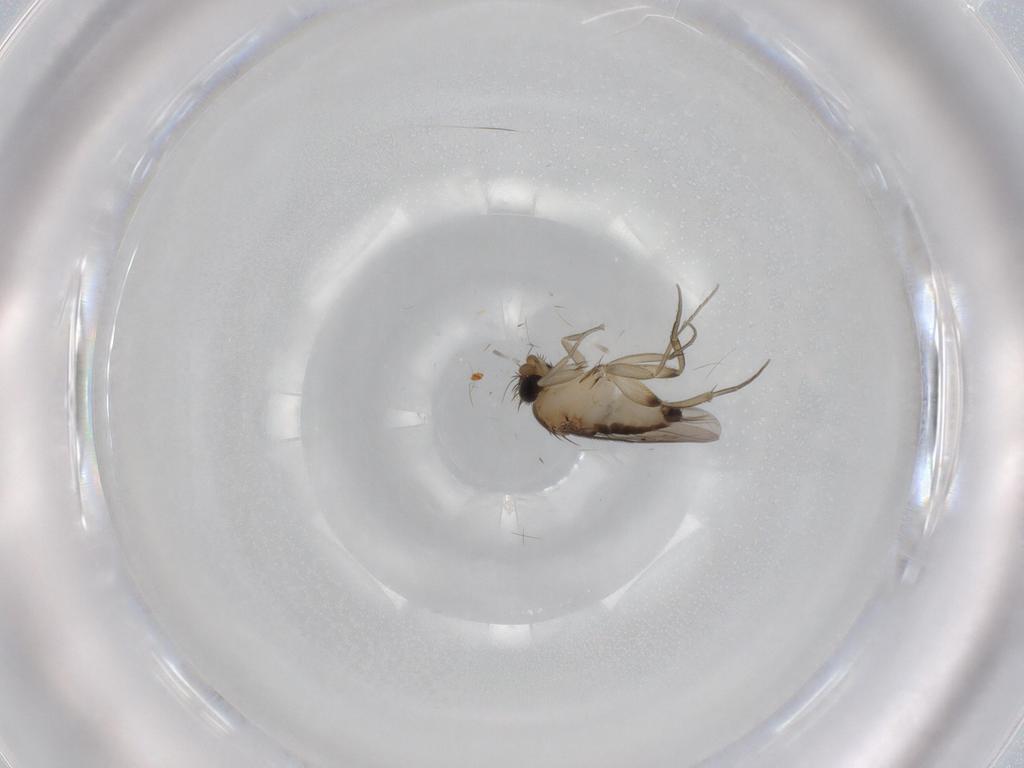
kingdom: Animalia
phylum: Arthropoda
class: Insecta
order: Diptera
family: Phoridae
